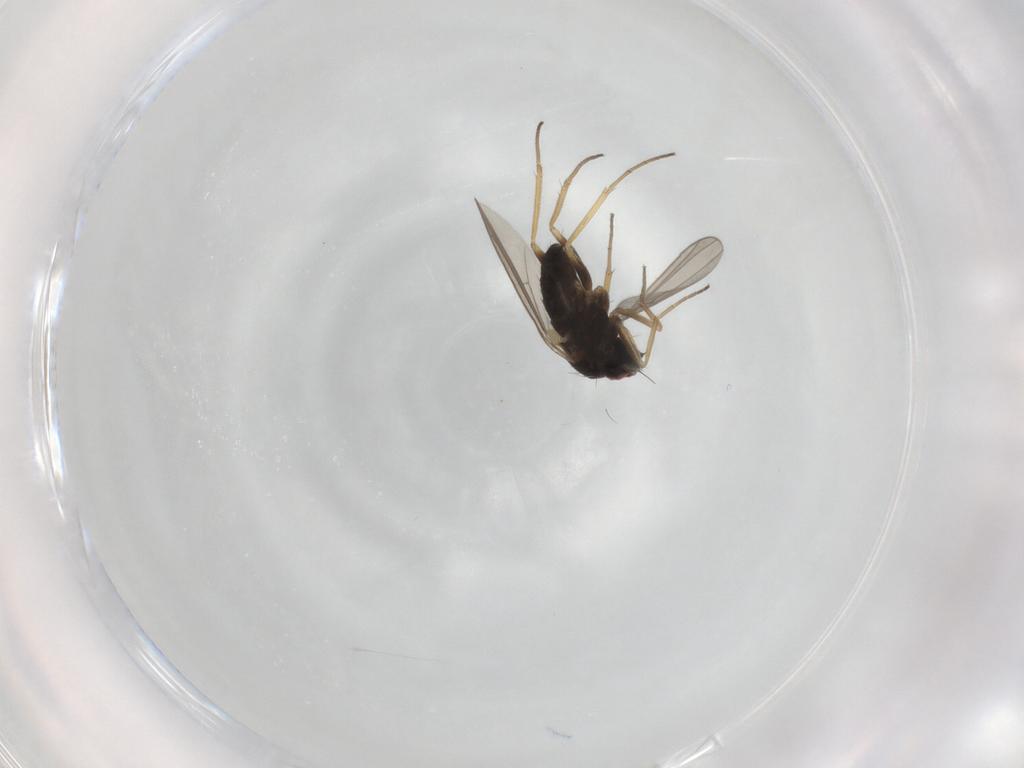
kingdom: Animalia
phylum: Arthropoda
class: Insecta
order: Diptera
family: Dolichopodidae
